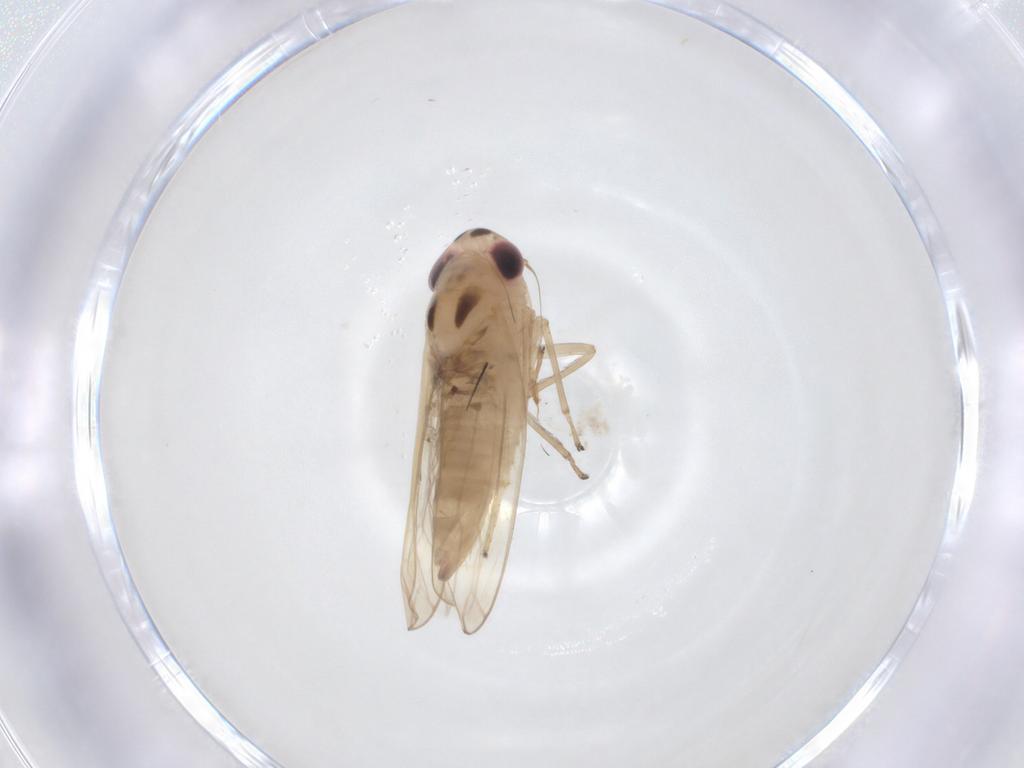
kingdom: Animalia
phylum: Arthropoda
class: Insecta
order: Hemiptera
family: Cicadellidae
